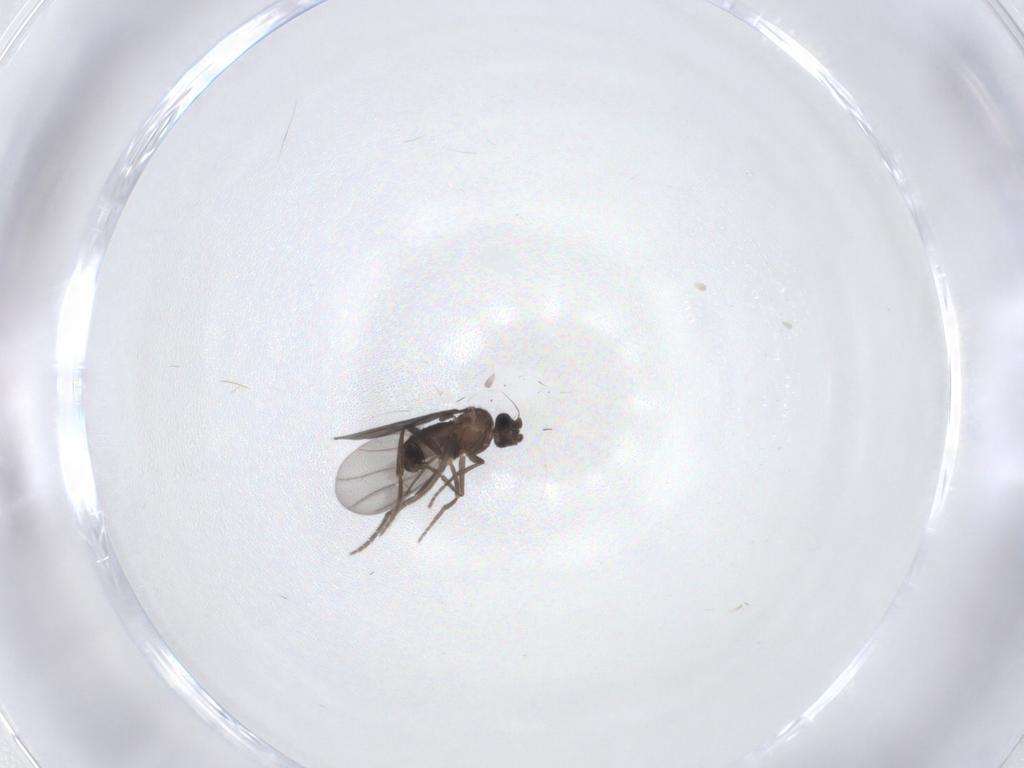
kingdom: Animalia
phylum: Arthropoda
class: Insecta
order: Diptera
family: Phoridae
